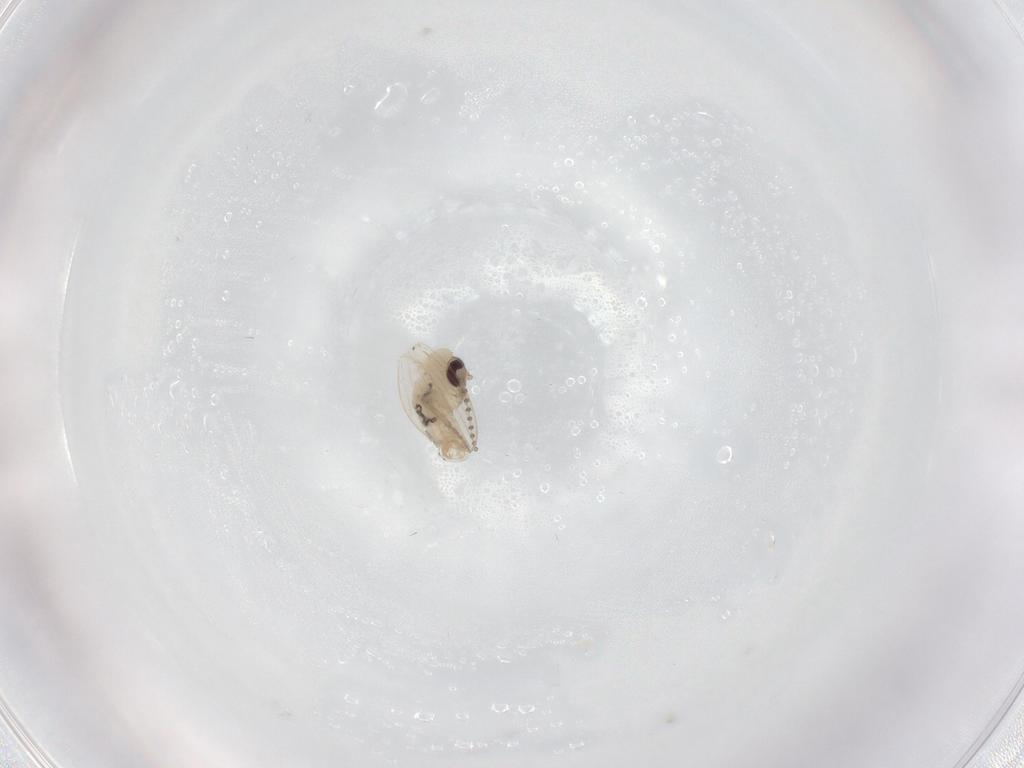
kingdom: Animalia
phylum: Arthropoda
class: Insecta
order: Diptera
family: Psychodidae
